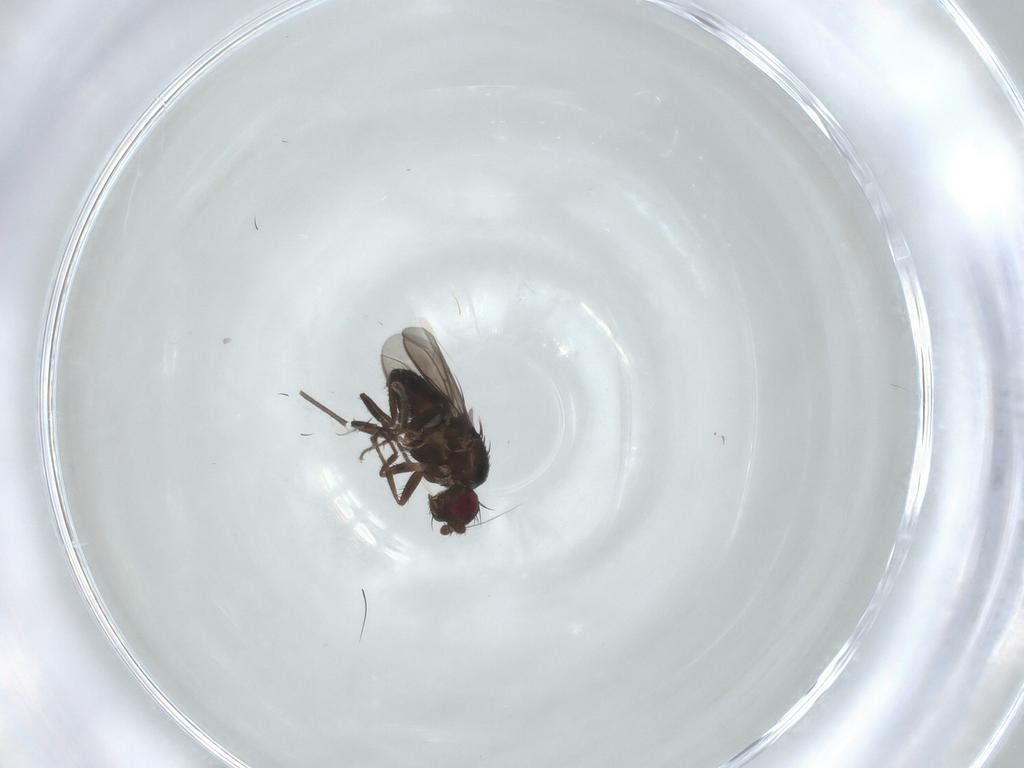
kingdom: Animalia
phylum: Arthropoda
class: Insecta
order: Diptera
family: Sphaeroceridae
